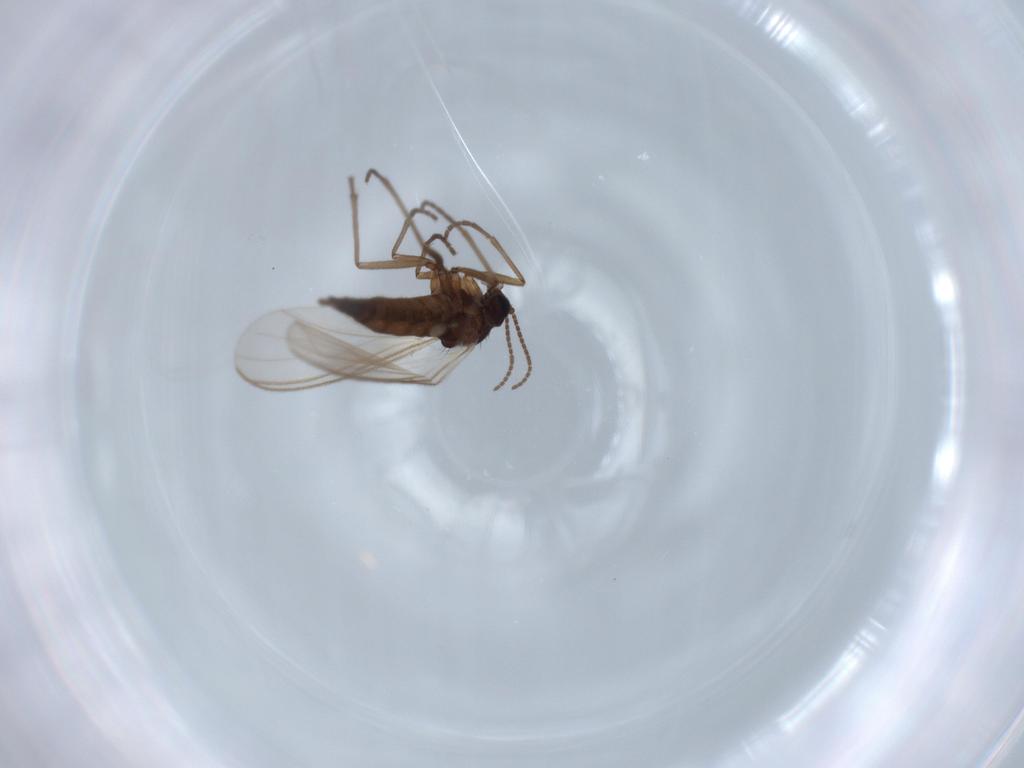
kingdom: Animalia
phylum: Arthropoda
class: Insecta
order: Diptera
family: Sciaridae
